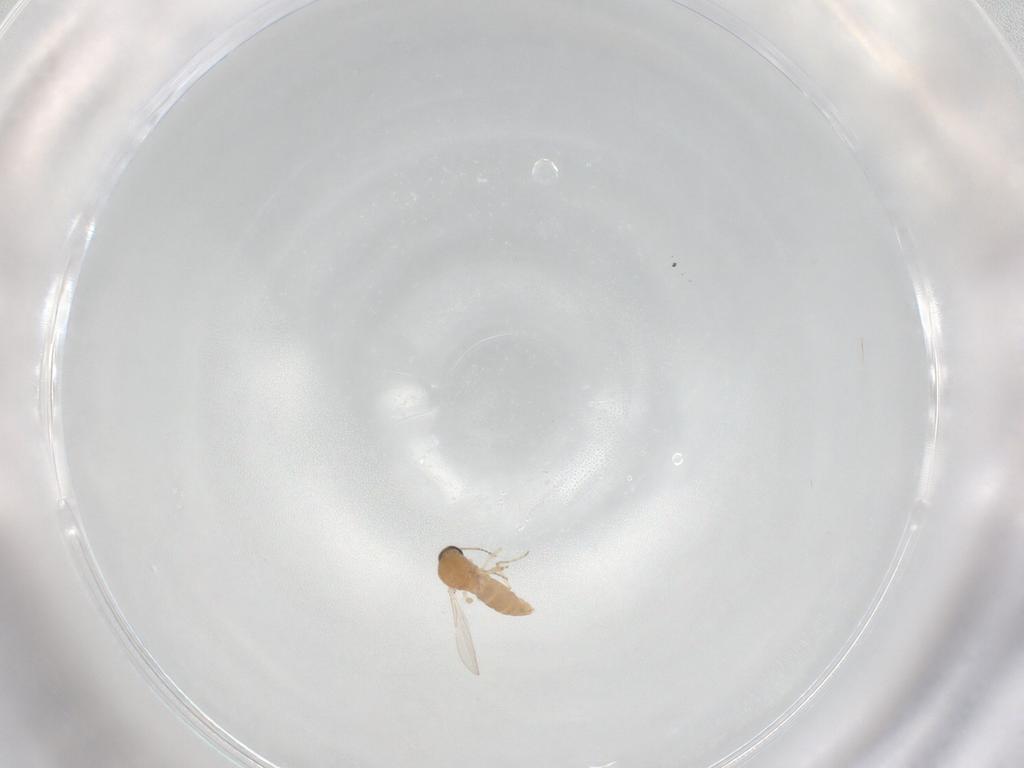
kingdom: Animalia
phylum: Arthropoda
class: Insecta
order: Diptera
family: Ceratopogonidae
